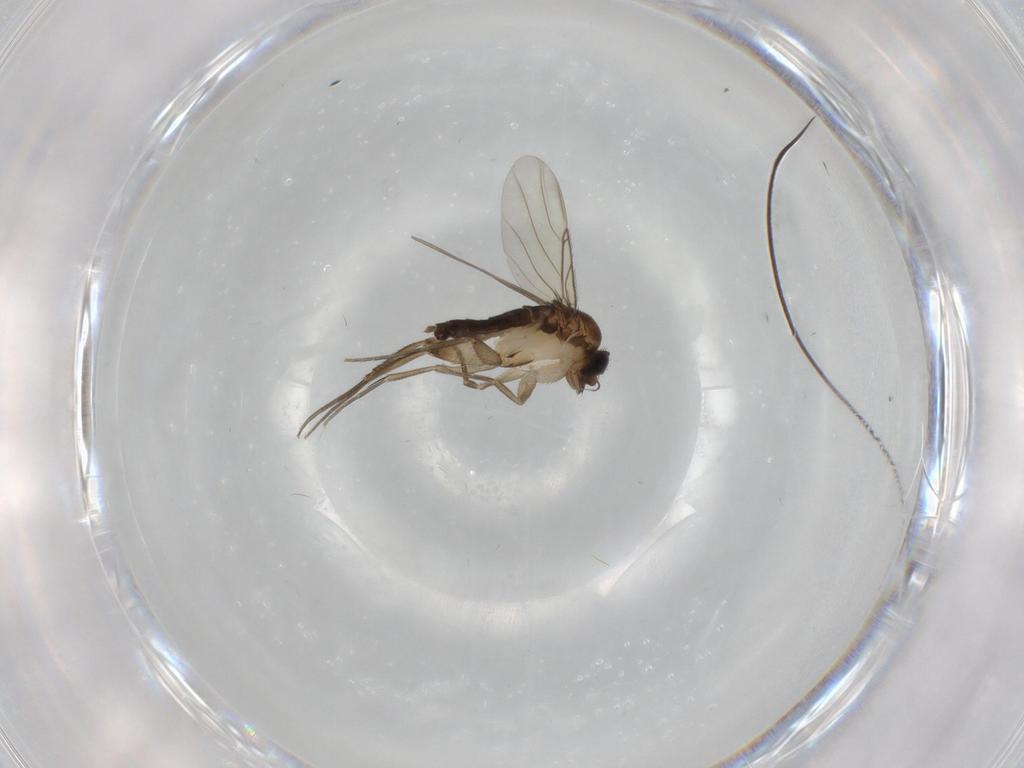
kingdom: Animalia
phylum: Arthropoda
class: Insecta
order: Diptera
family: Phoridae
